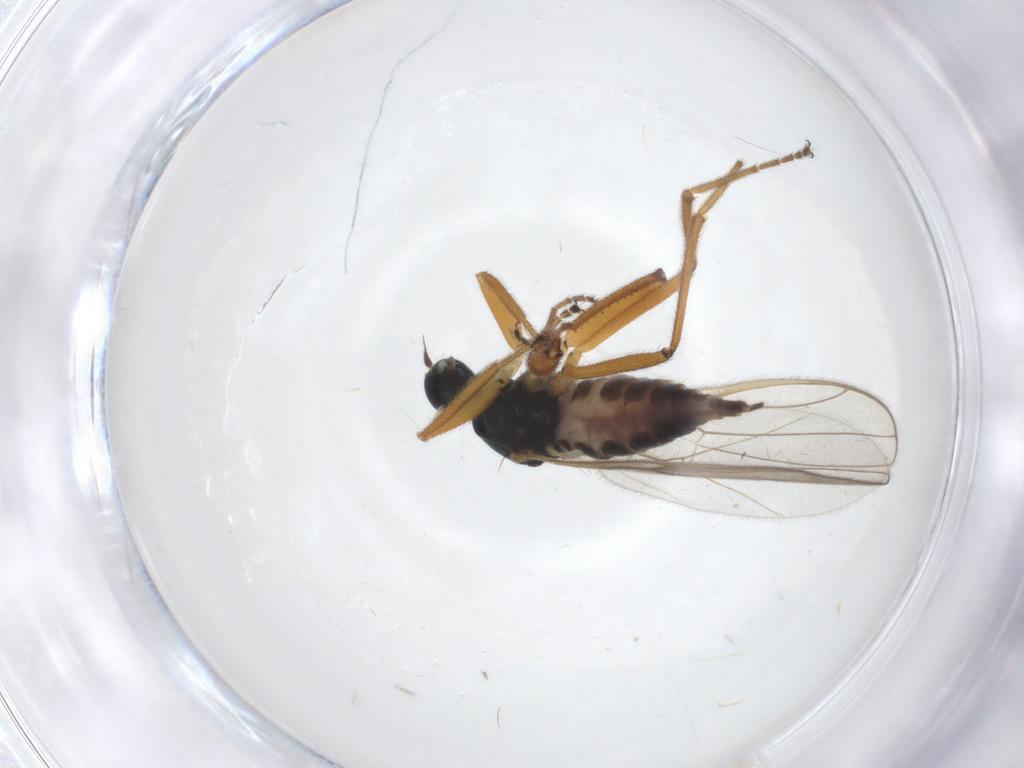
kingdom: Animalia
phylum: Arthropoda
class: Insecta
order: Diptera
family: Hybotidae
